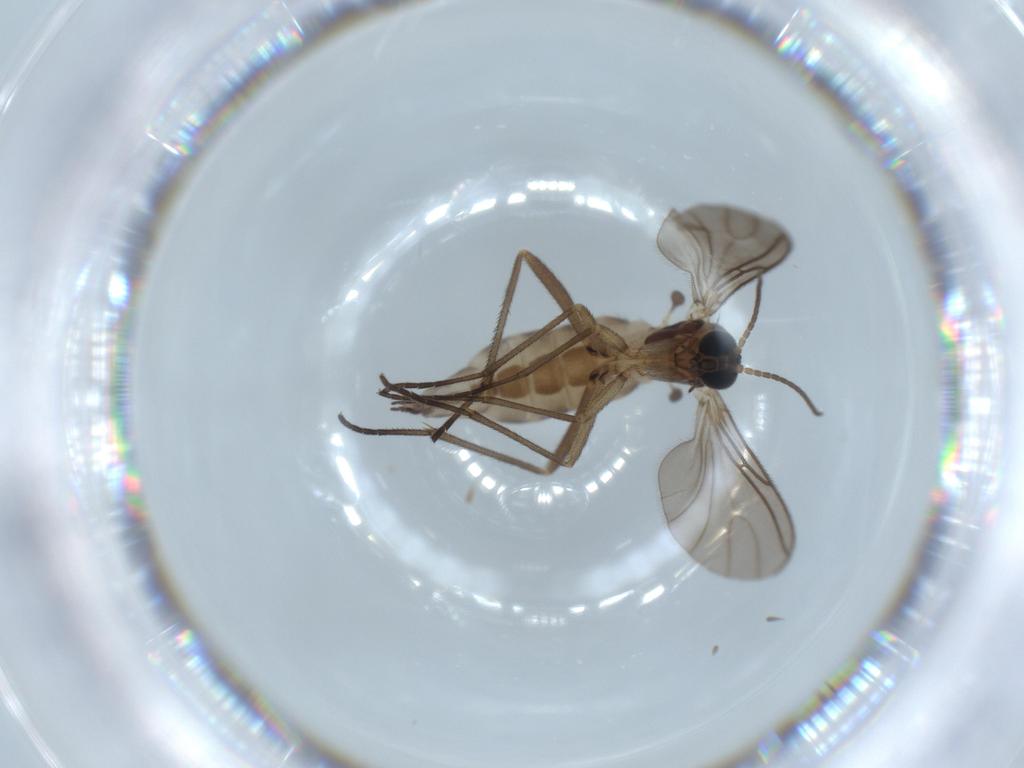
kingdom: Animalia
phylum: Arthropoda
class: Insecta
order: Diptera
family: Sciaridae
